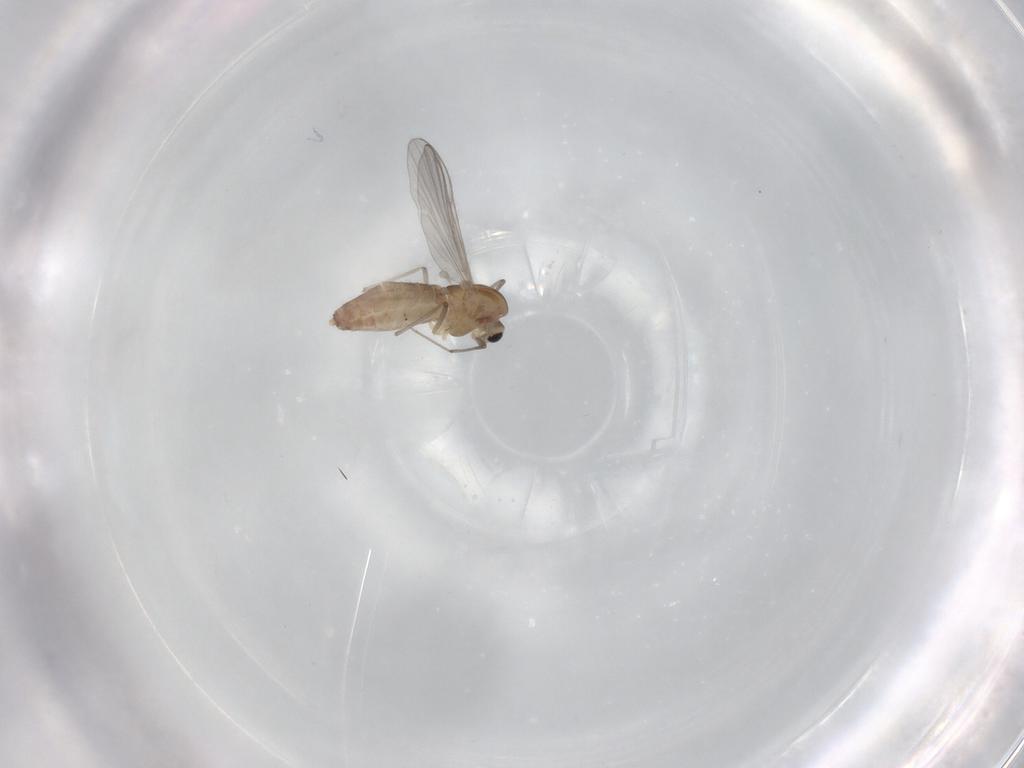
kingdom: Animalia
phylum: Arthropoda
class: Insecta
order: Diptera
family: Chironomidae
